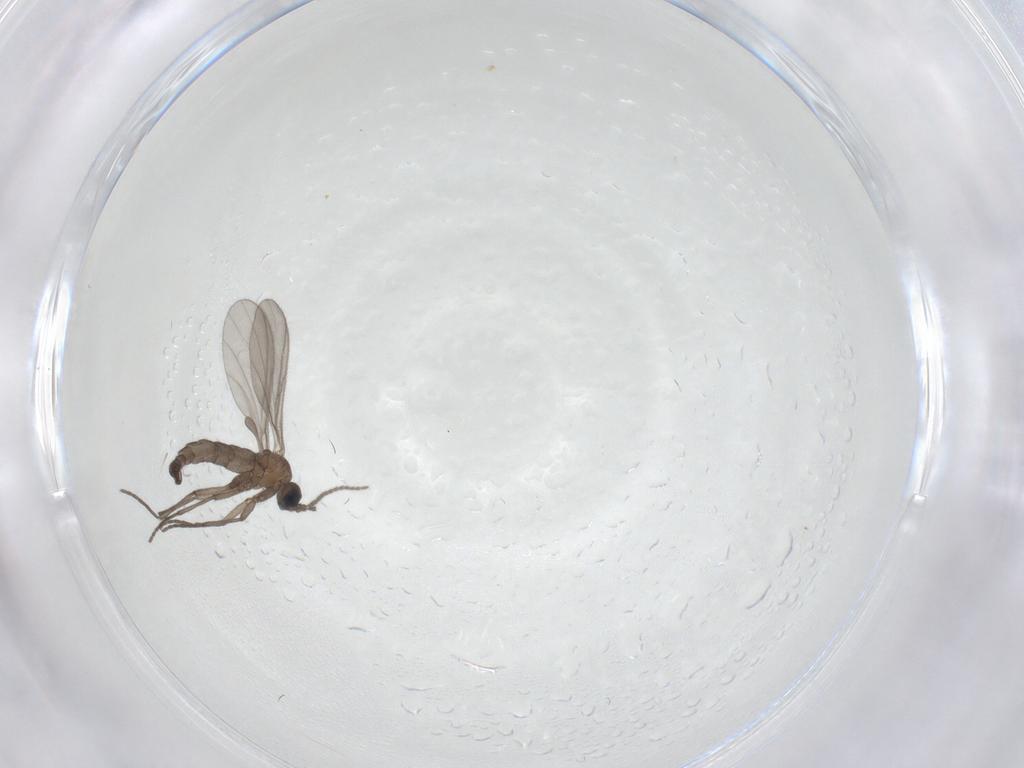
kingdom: Animalia
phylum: Arthropoda
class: Insecta
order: Diptera
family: Sciaridae
